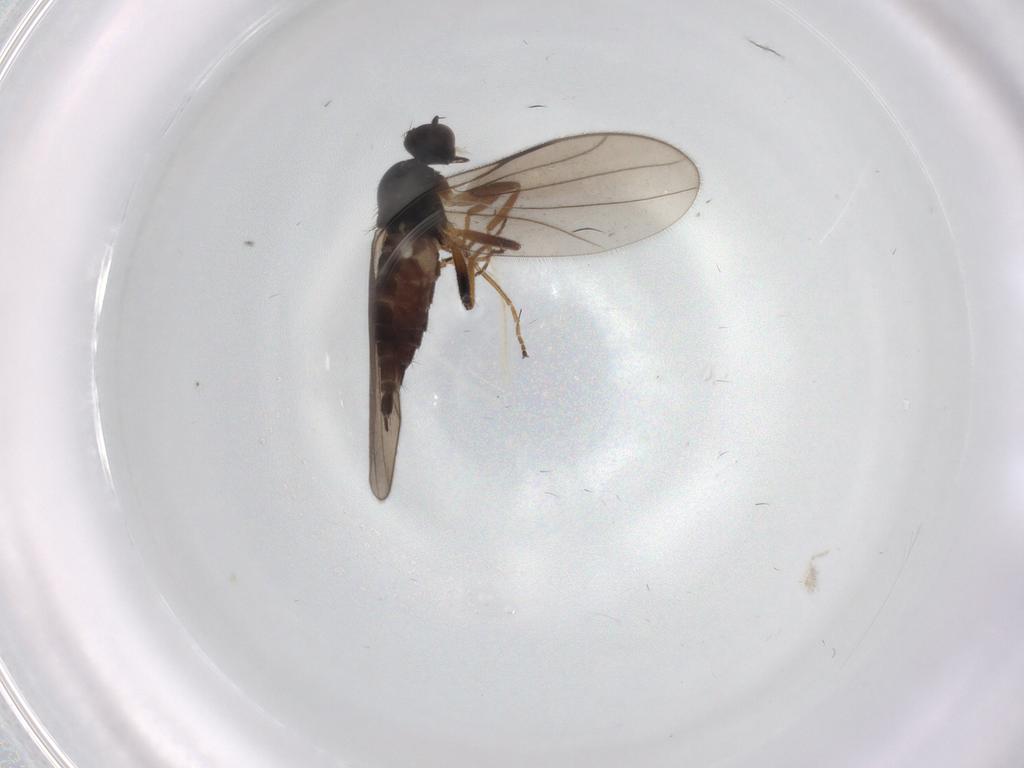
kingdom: Animalia
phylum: Arthropoda
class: Insecta
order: Diptera
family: Hybotidae
